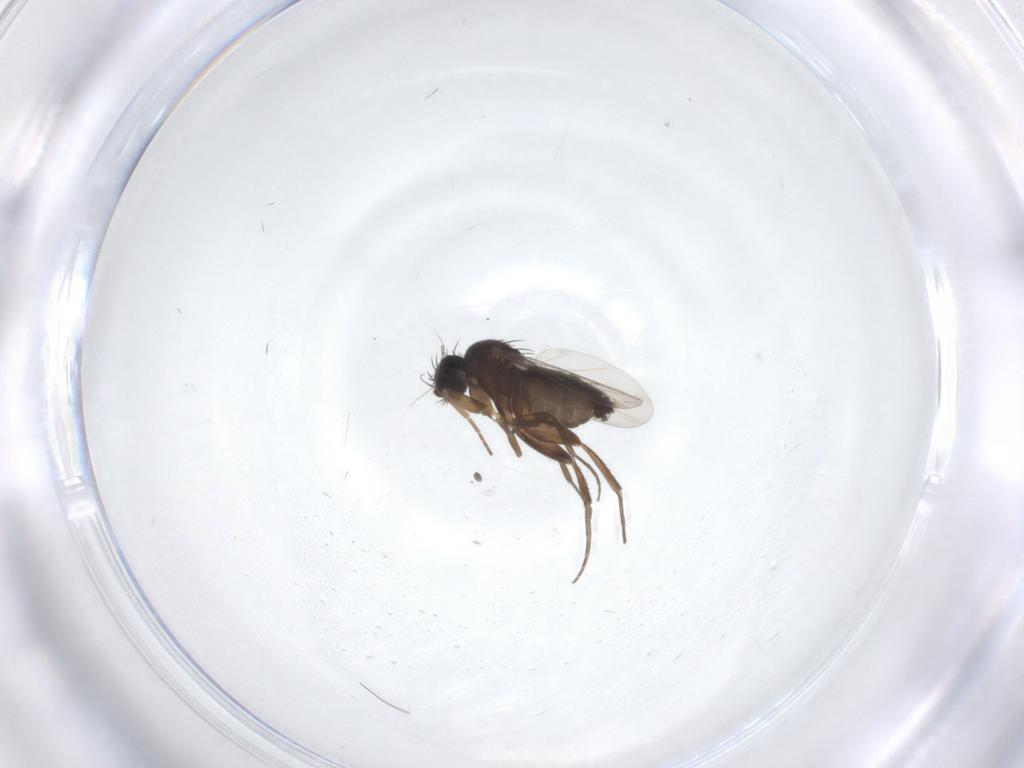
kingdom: Animalia
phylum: Arthropoda
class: Insecta
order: Diptera
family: Phoridae
